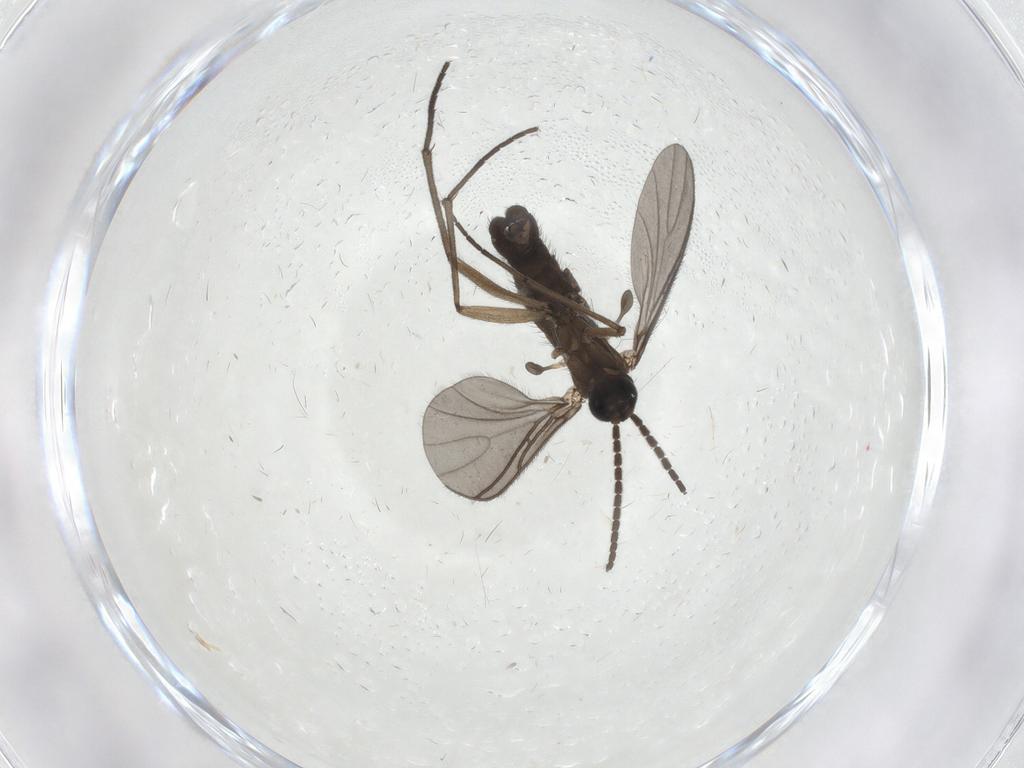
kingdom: Animalia
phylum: Arthropoda
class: Insecta
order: Diptera
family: Sciaridae
